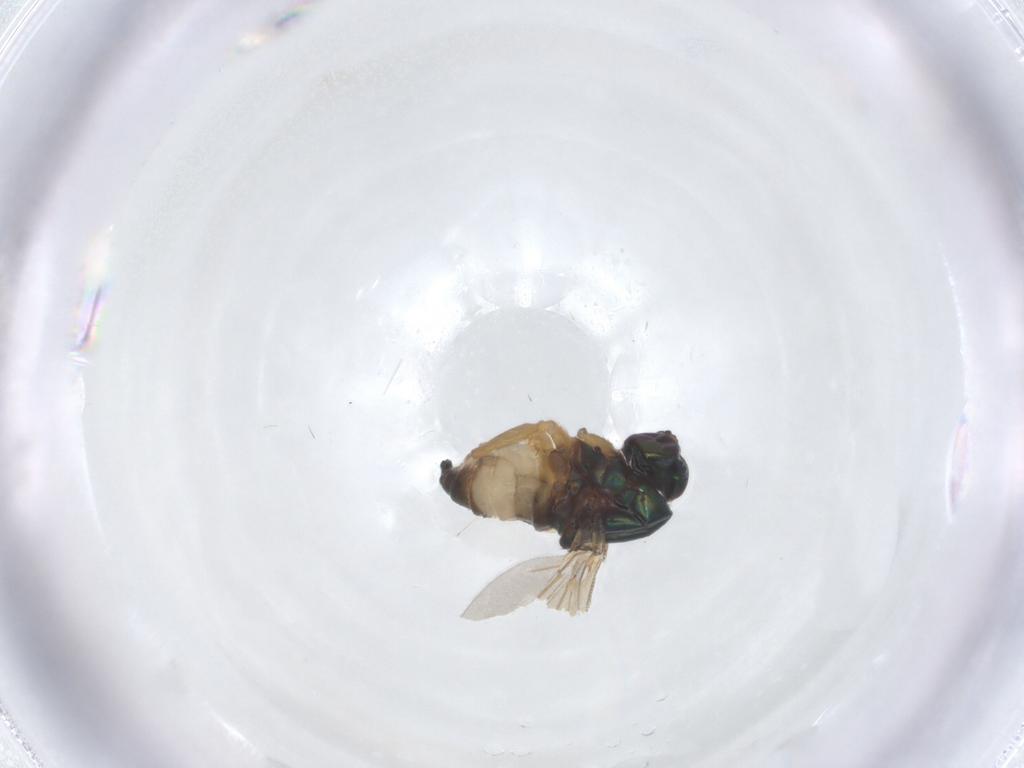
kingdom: Animalia
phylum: Arthropoda
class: Insecta
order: Diptera
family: Dolichopodidae
